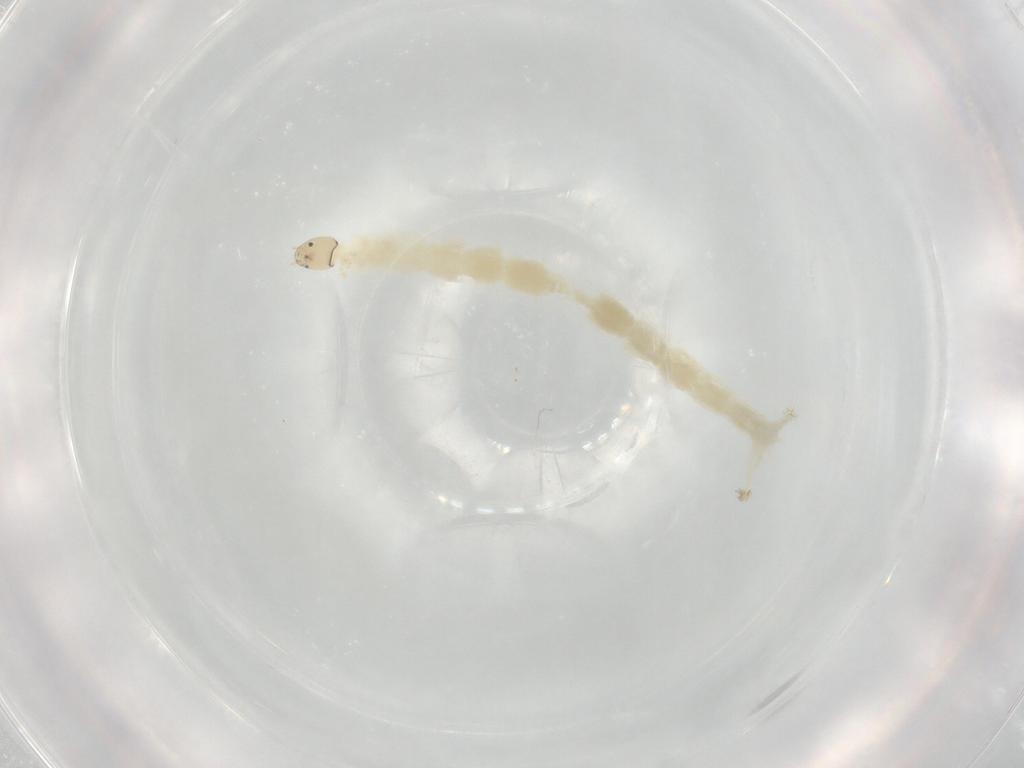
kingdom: Animalia
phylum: Arthropoda
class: Insecta
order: Diptera
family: Chironomidae
